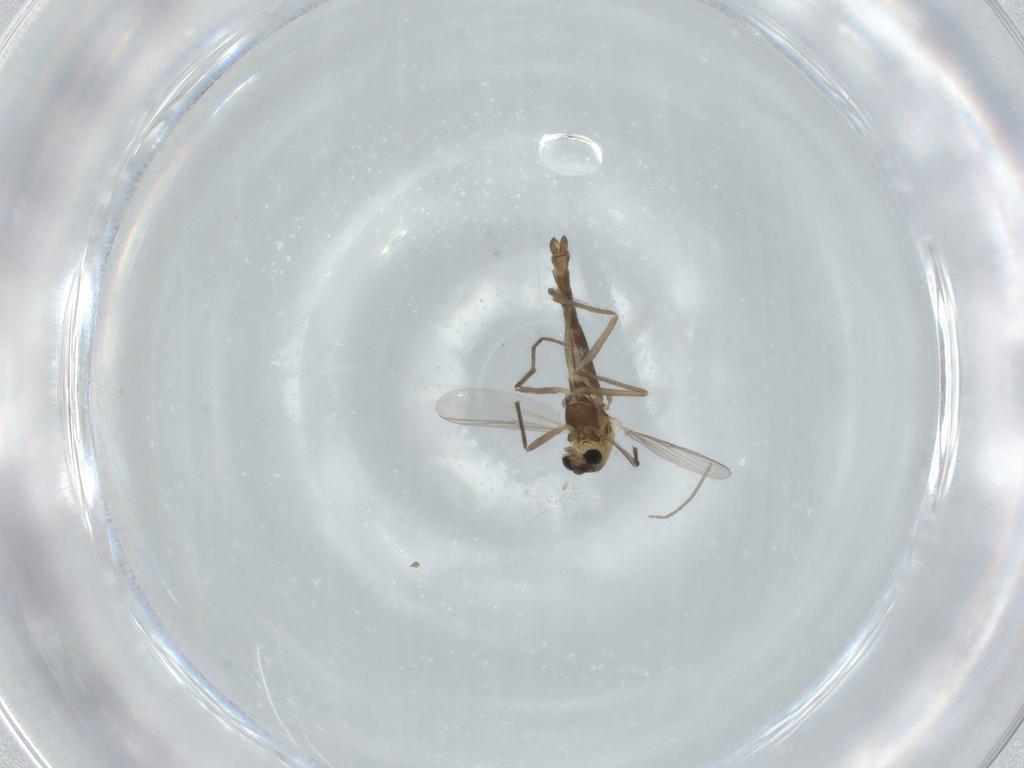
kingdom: Animalia
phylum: Arthropoda
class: Insecta
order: Diptera
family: Chironomidae
